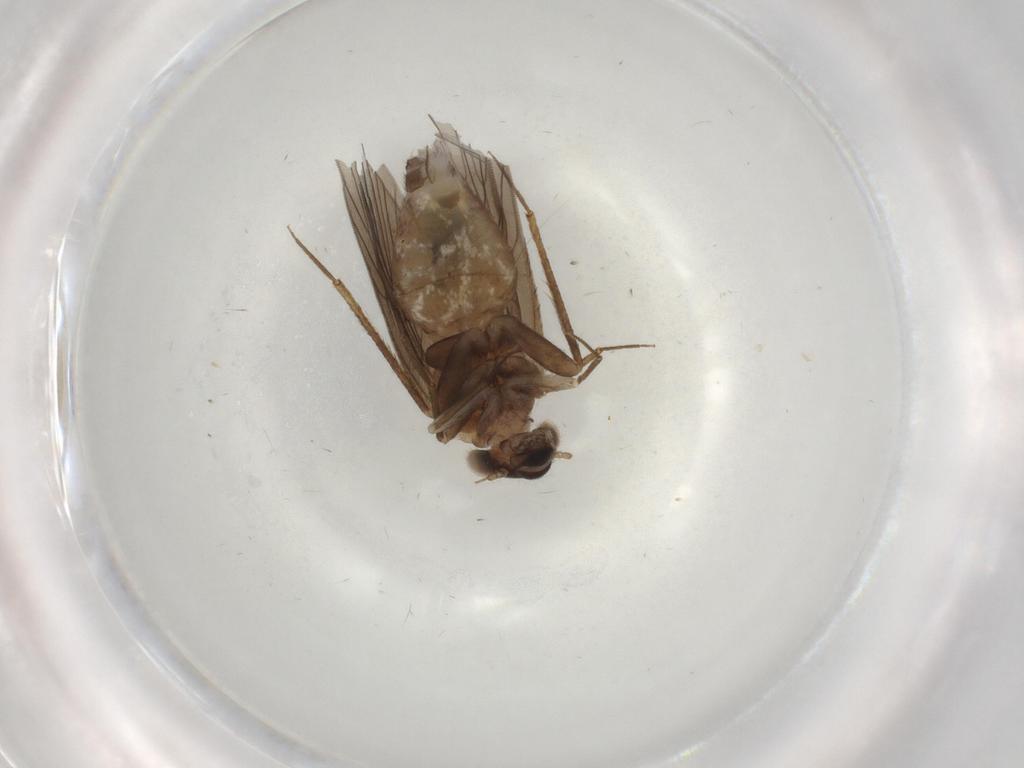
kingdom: Animalia
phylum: Arthropoda
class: Insecta
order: Psocodea
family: Lepidopsocidae
